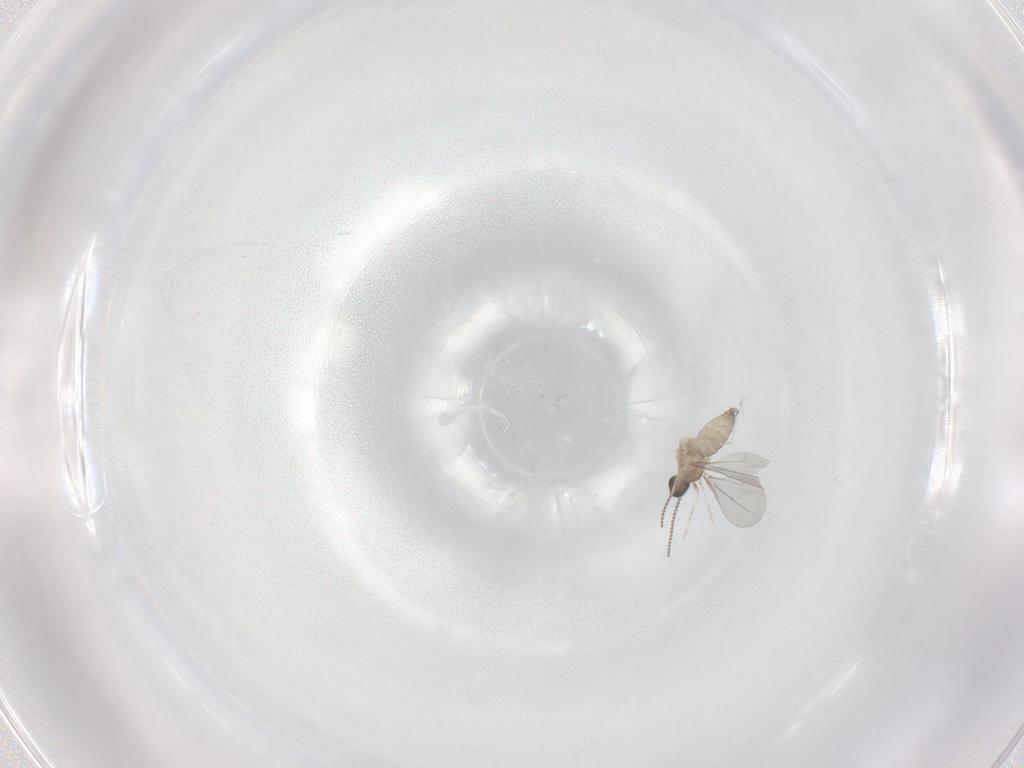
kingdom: Animalia
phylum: Arthropoda
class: Insecta
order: Diptera
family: Cecidomyiidae
